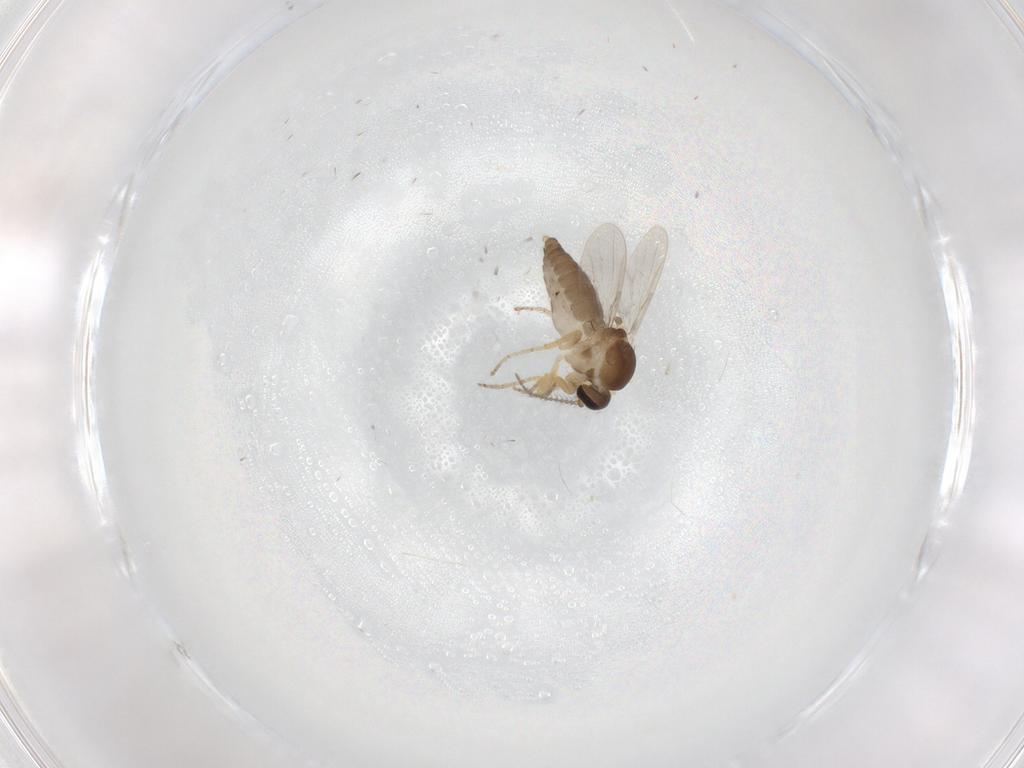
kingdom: Animalia
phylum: Arthropoda
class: Insecta
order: Diptera
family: Ceratopogonidae
